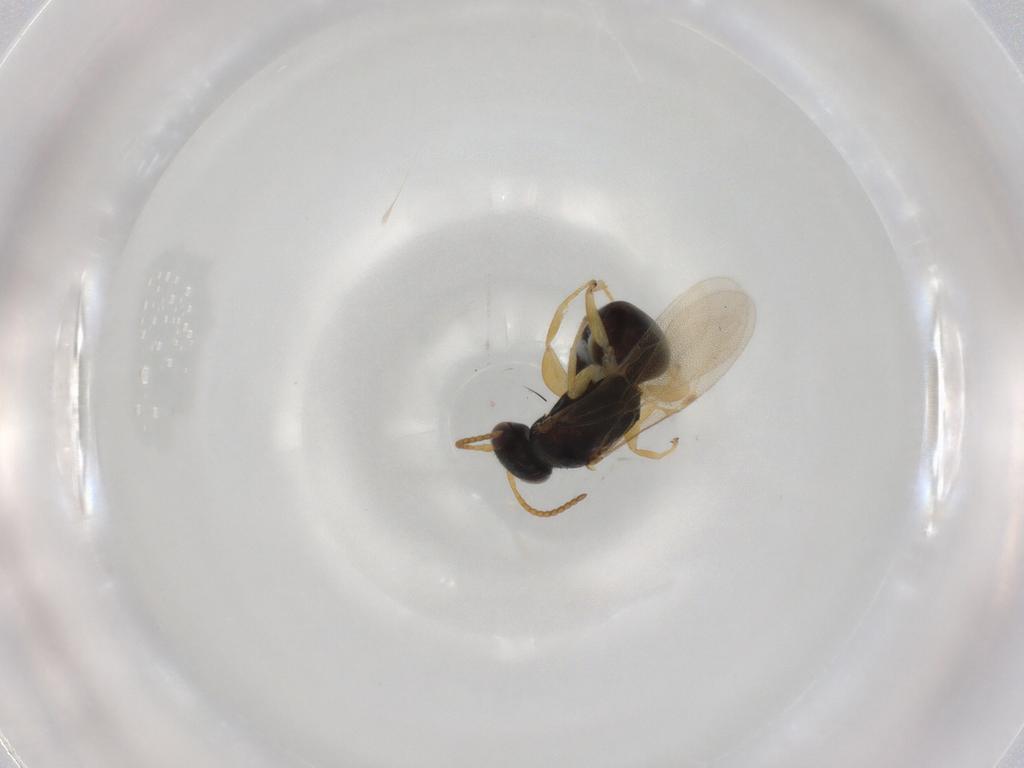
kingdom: Animalia
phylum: Arthropoda
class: Insecta
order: Hymenoptera
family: Bethylidae
